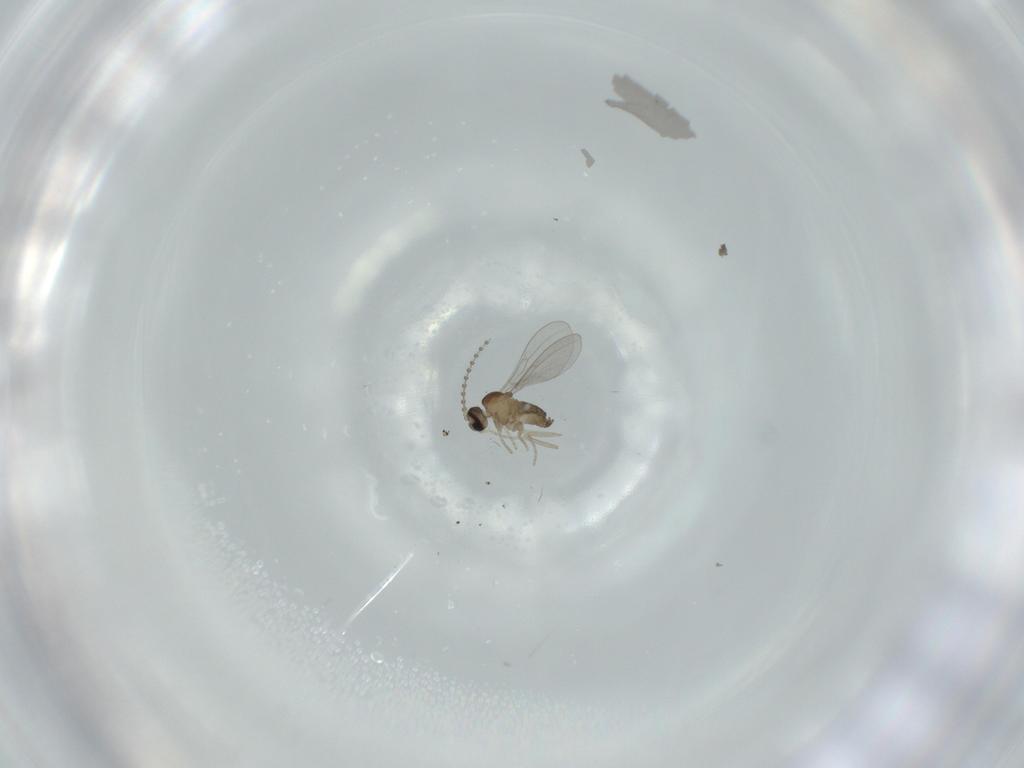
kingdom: Animalia
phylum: Arthropoda
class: Insecta
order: Diptera
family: Cecidomyiidae
